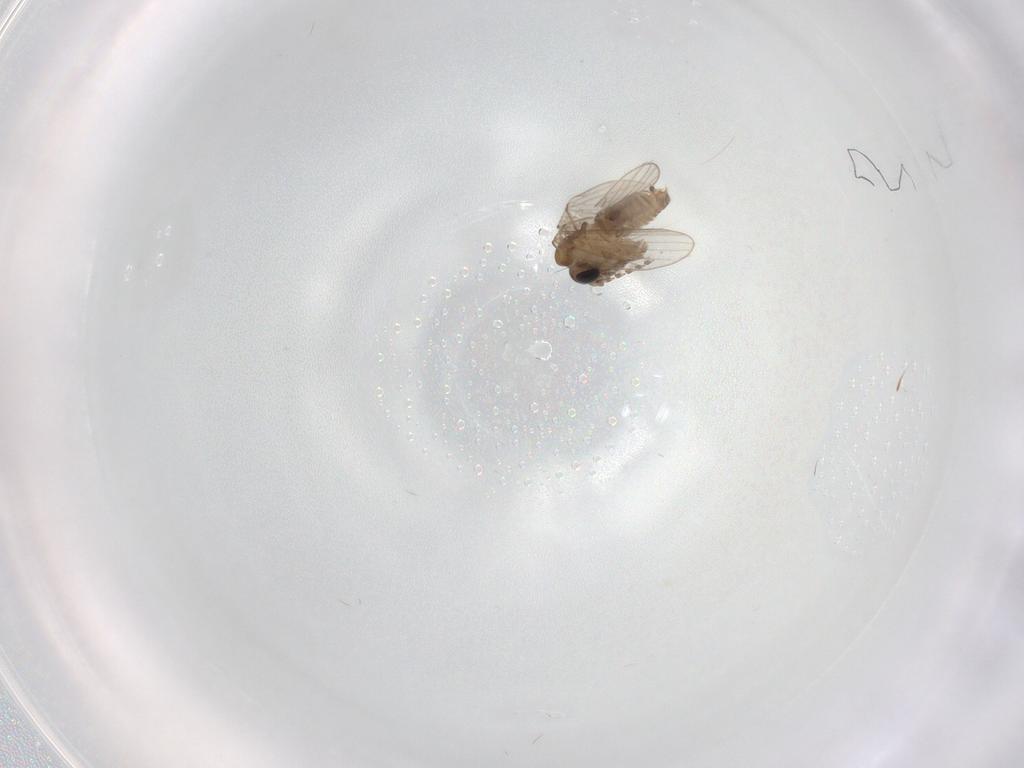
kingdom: Animalia
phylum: Arthropoda
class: Insecta
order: Diptera
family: Psychodidae
